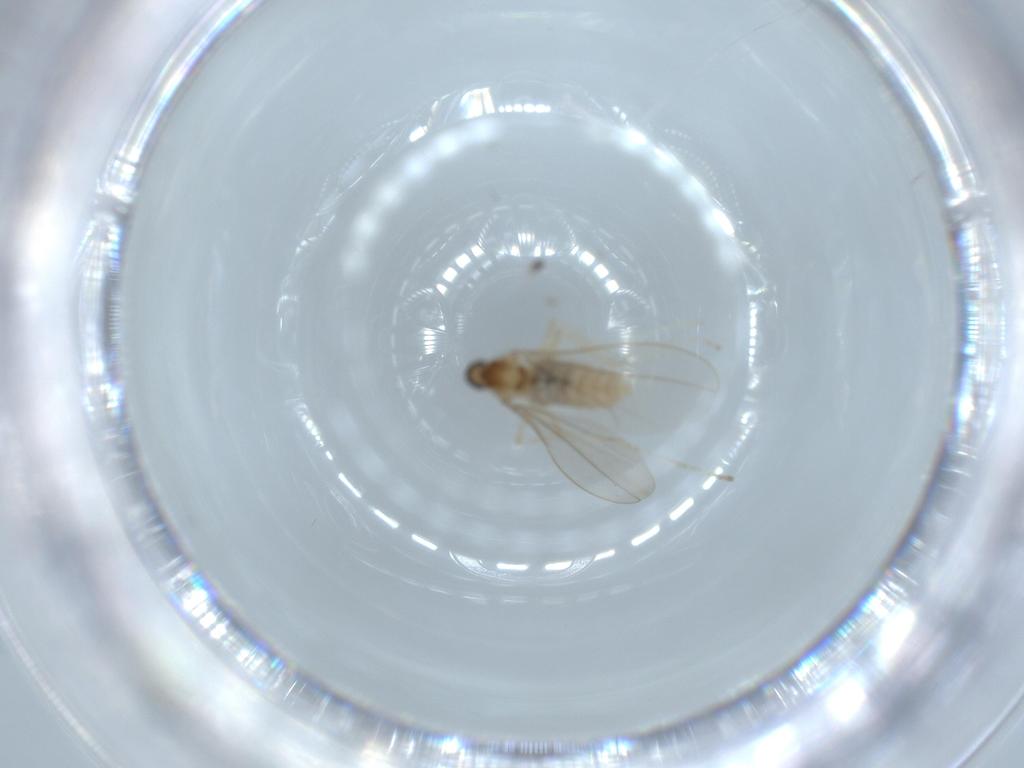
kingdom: Animalia
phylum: Arthropoda
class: Insecta
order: Diptera
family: Cecidomyiidae
